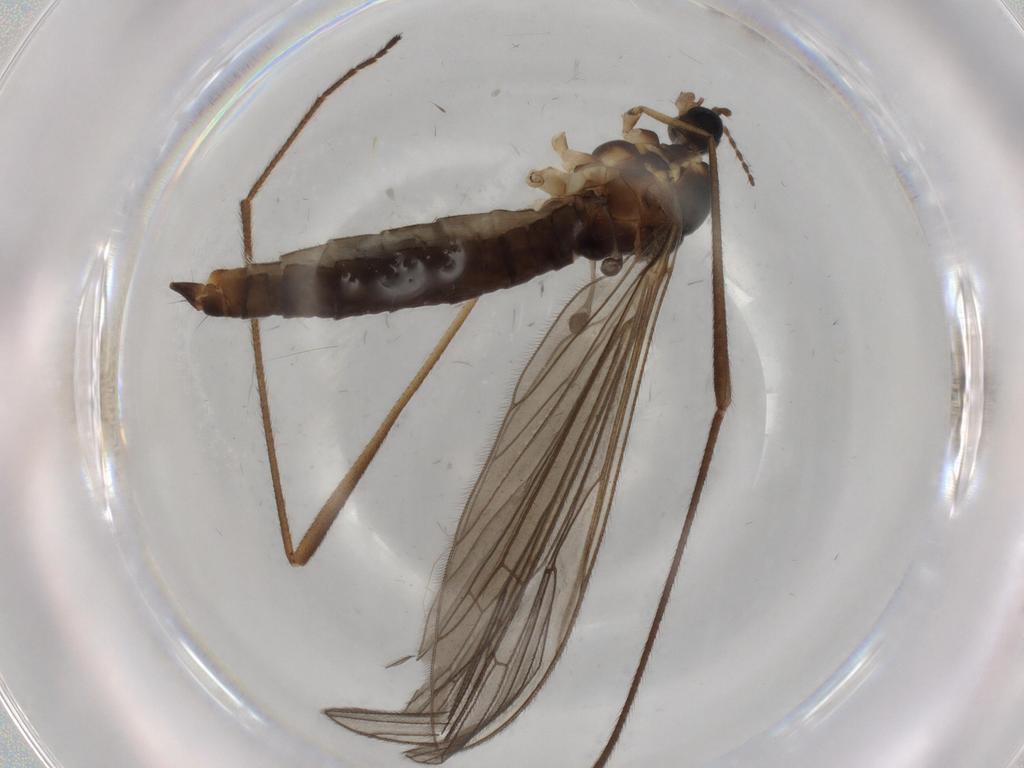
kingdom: Animalia
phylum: Arthropoda
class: Insecta
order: Diptera
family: Limoniidae
